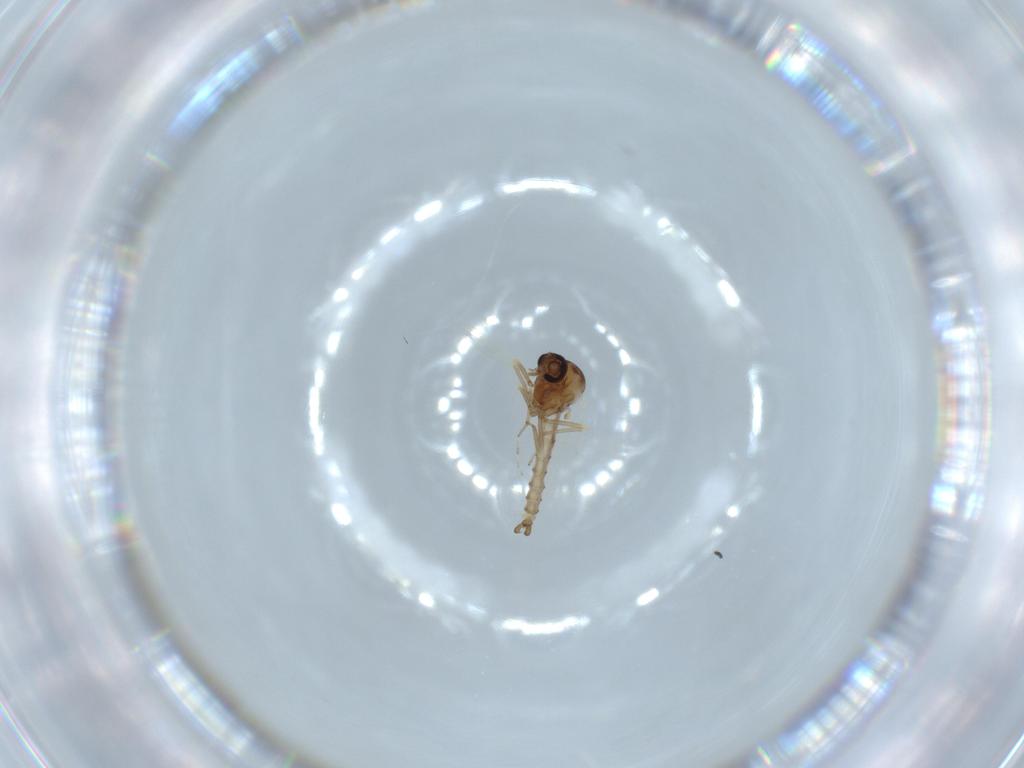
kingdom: Animalia
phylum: Arthropoda
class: Insecta
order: Diptera
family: Ceratopogonidae
